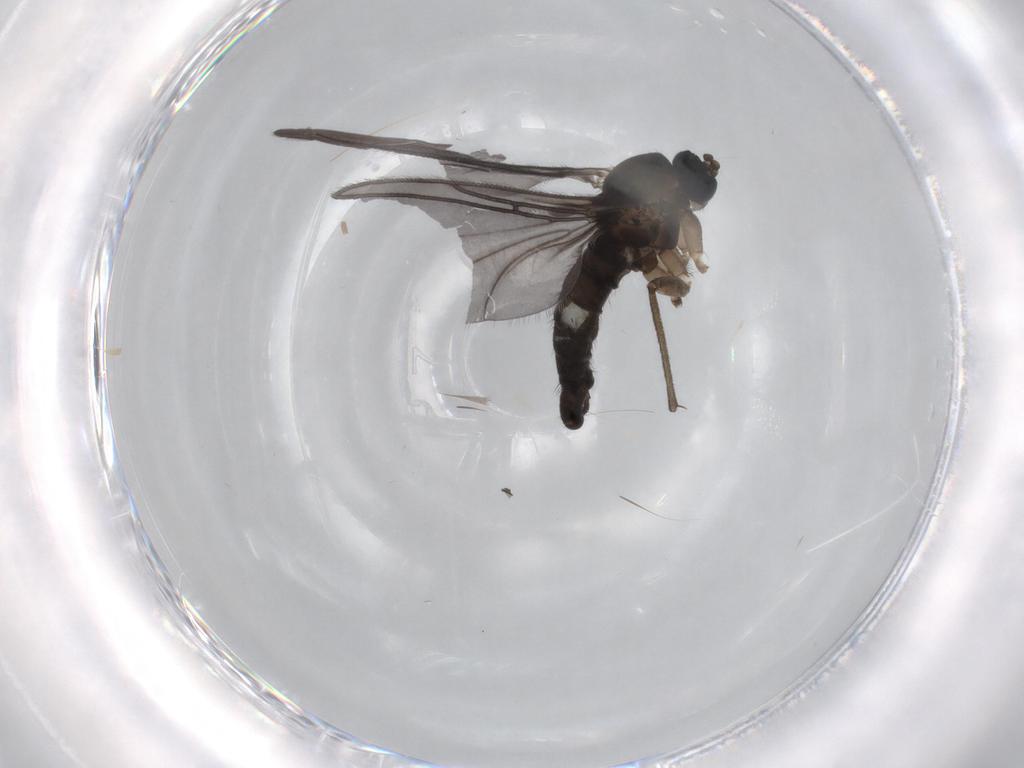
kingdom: Animalia
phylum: Arthropoda
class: Insecta
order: Diptera
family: Sciaridae
